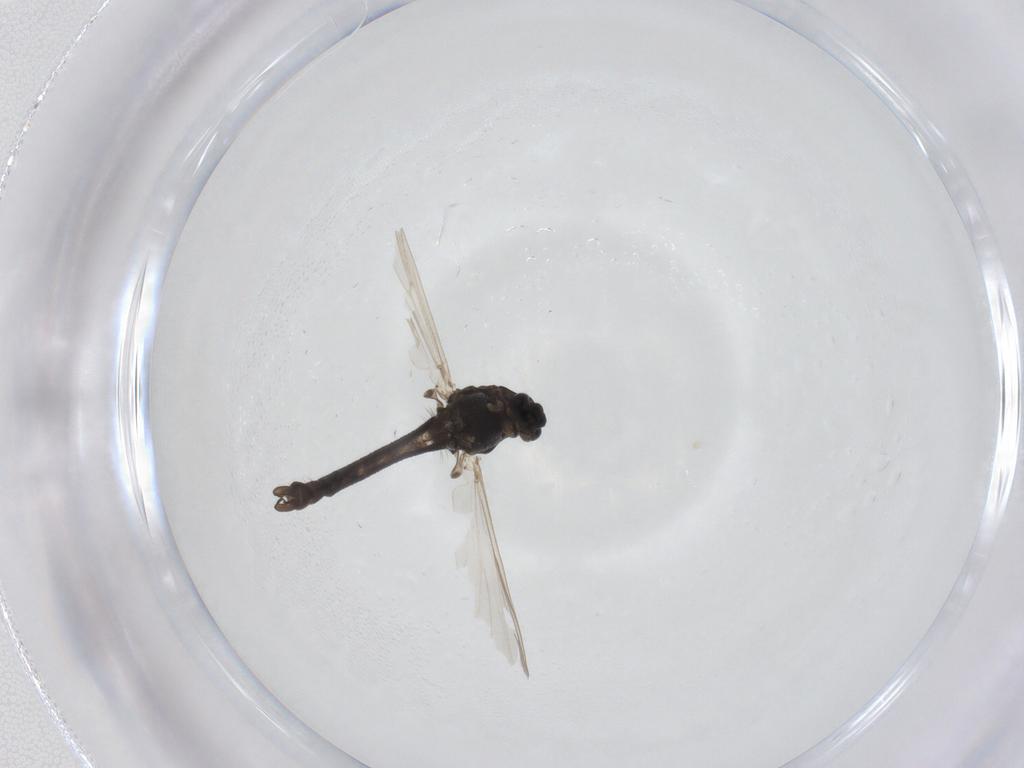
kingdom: Animalia
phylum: Arthropoda
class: Insecta
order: Diptera
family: Chironomidae
